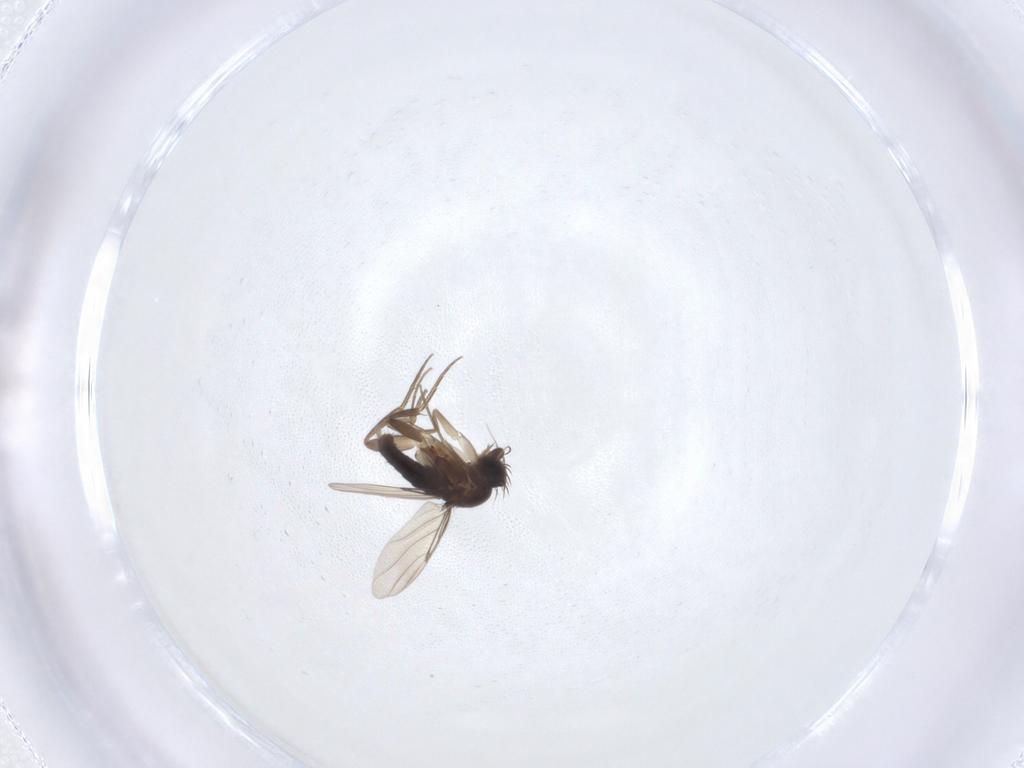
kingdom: Animalia
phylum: Arthropoda
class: Insecta
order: Diptera
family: Phoridae
